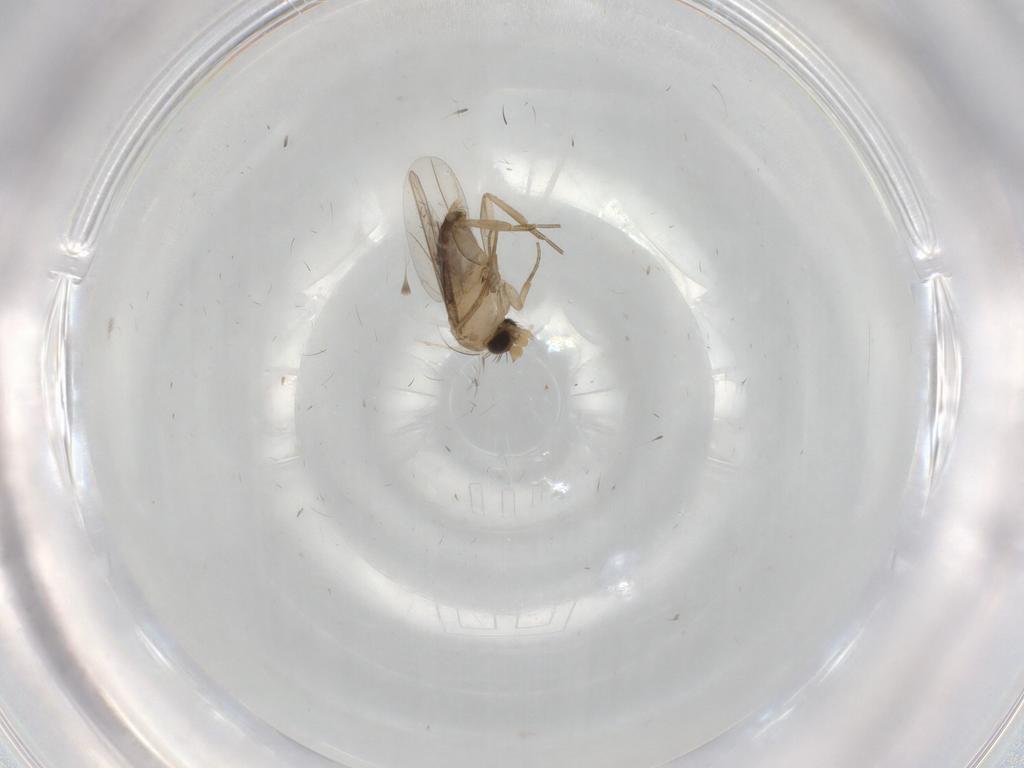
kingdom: Animalia
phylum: Arthropoda
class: Insecta
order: Diptera
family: Phoridae
